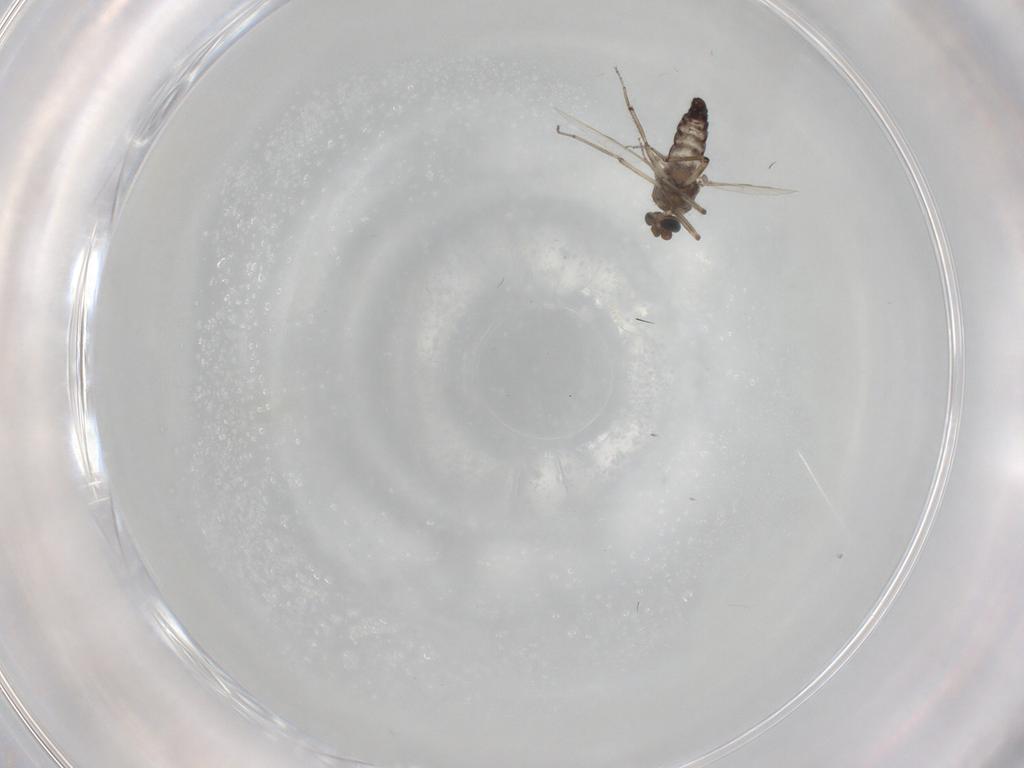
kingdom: Animalia
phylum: Arthropoda
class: Insecta
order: Diptera
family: Ceratopogonidae
